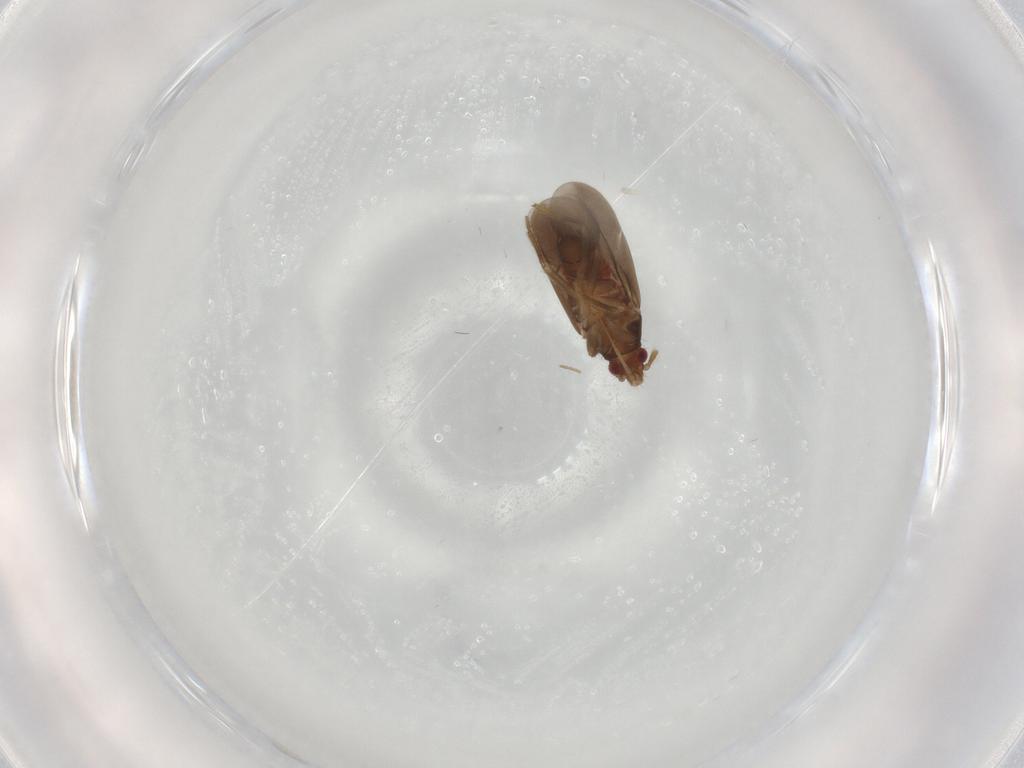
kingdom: Animalia
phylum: Arthropoda
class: Insecta
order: Hemiptera
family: Ceratocombidae
